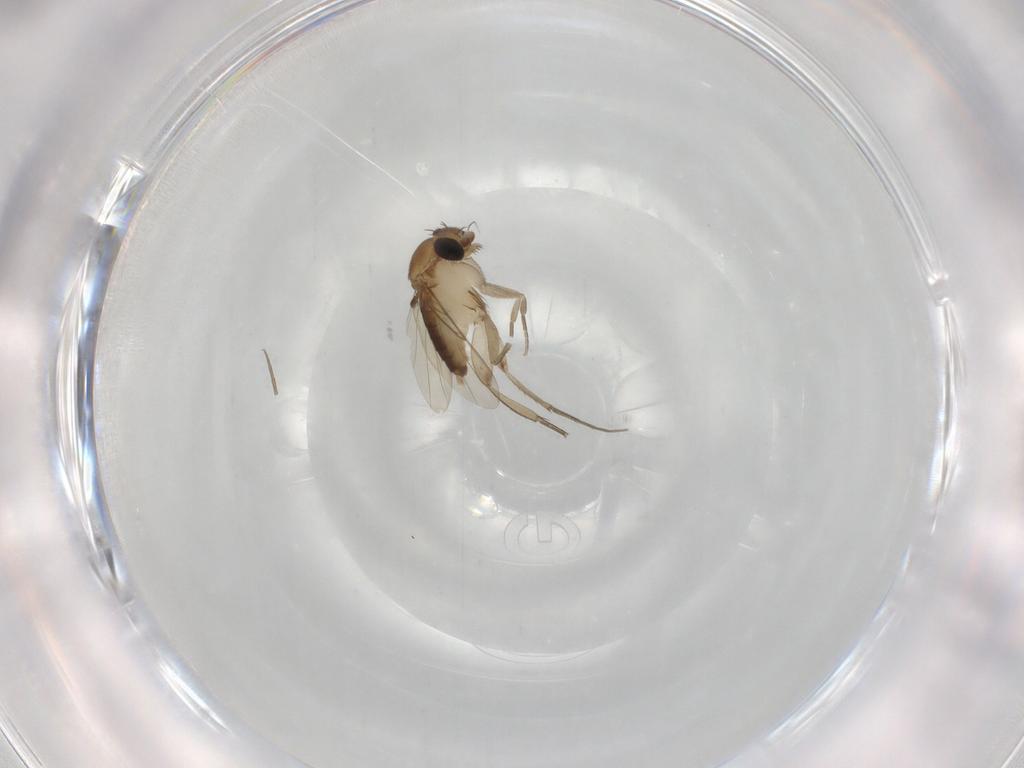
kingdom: Animalia
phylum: Arthropoda
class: Insecta
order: Diptera
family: Phoridae
